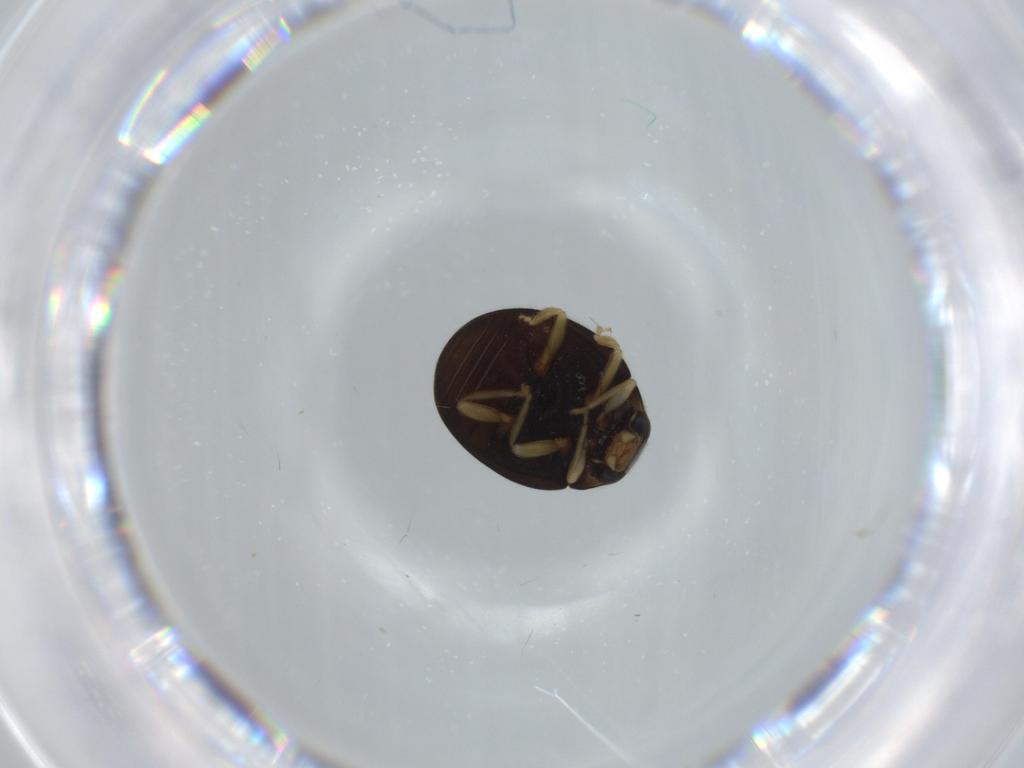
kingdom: Animalia
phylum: Arthropoda
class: Insecta
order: Coleoptera
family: Coccinellidae
